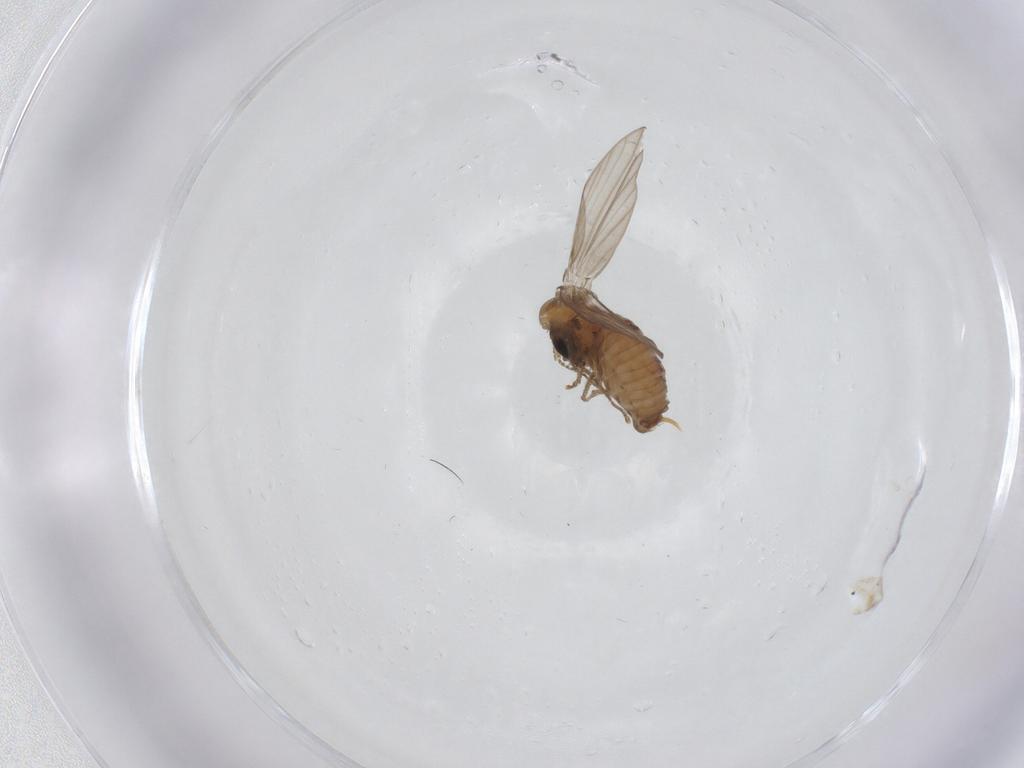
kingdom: Animalia
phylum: Arthropoda
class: Insecta
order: Diptera
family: Psychodidae
